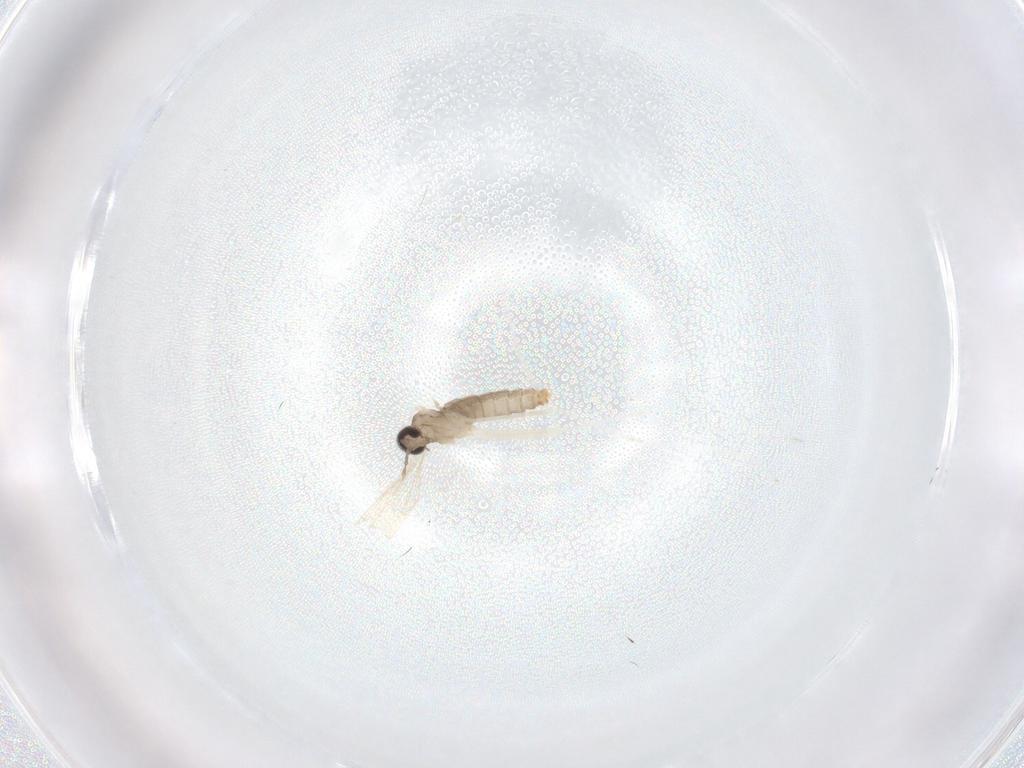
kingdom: Animalia
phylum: Arthropoda
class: Insecta
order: Diptera
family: Sciaridae
